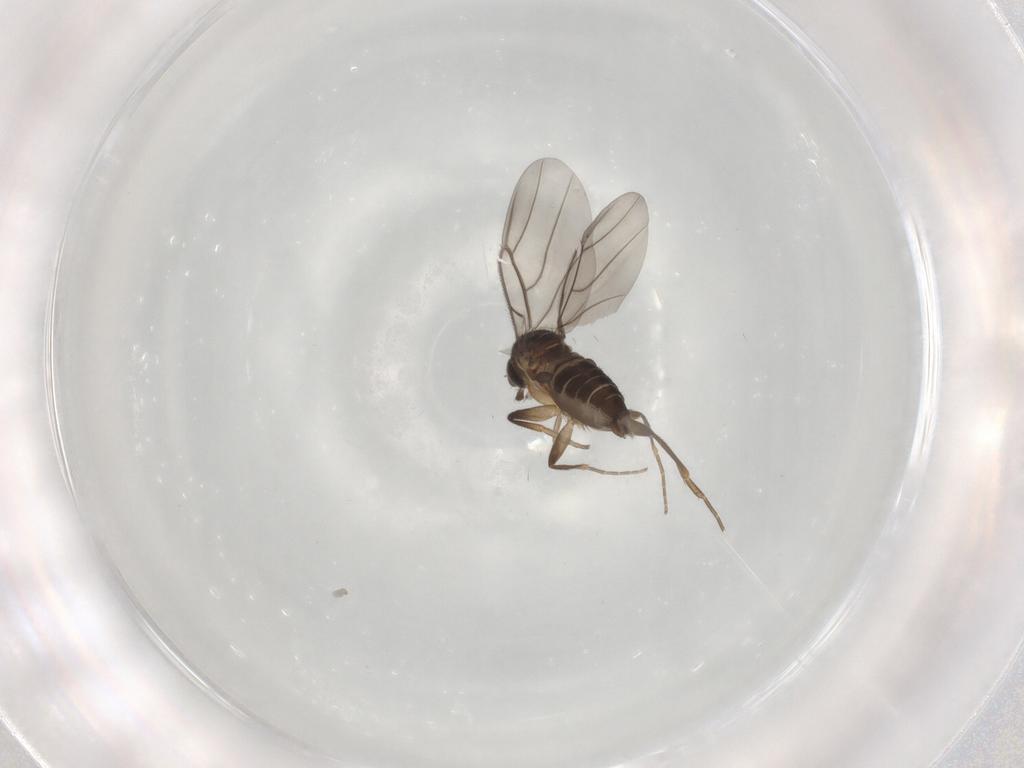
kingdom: Animalia
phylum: Arthropoda
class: Insecta
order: Diptera
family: Phoridae
